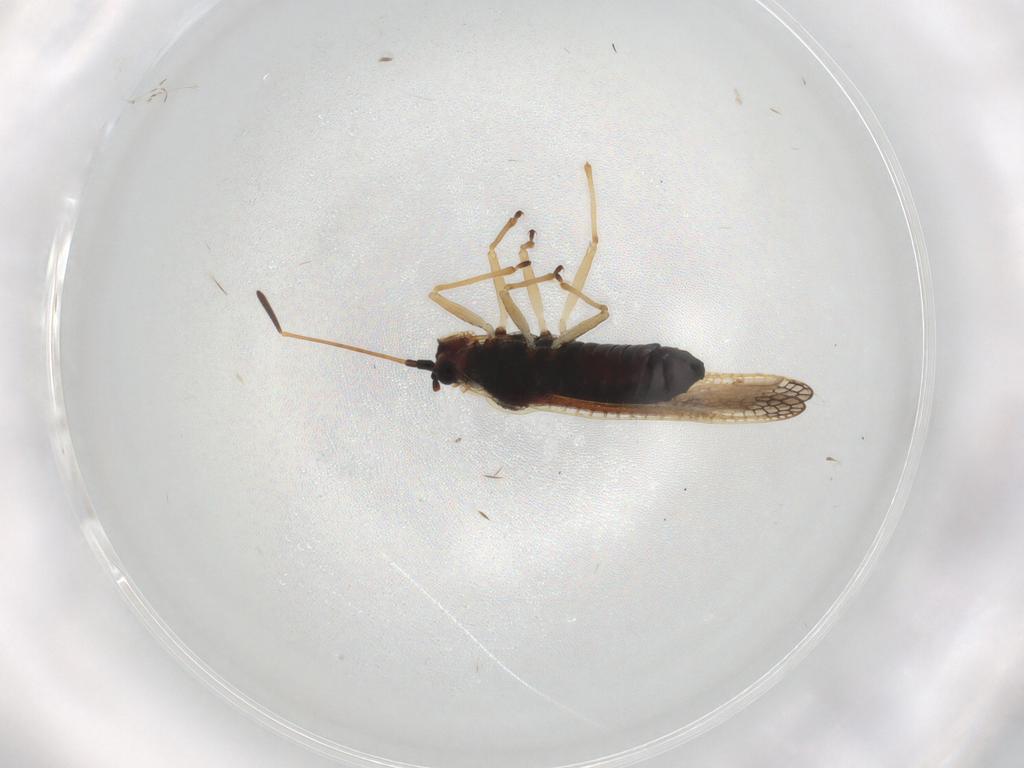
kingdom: Animalia
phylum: Arthropoda
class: Insecta
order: Hemiptera
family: Tingidae
